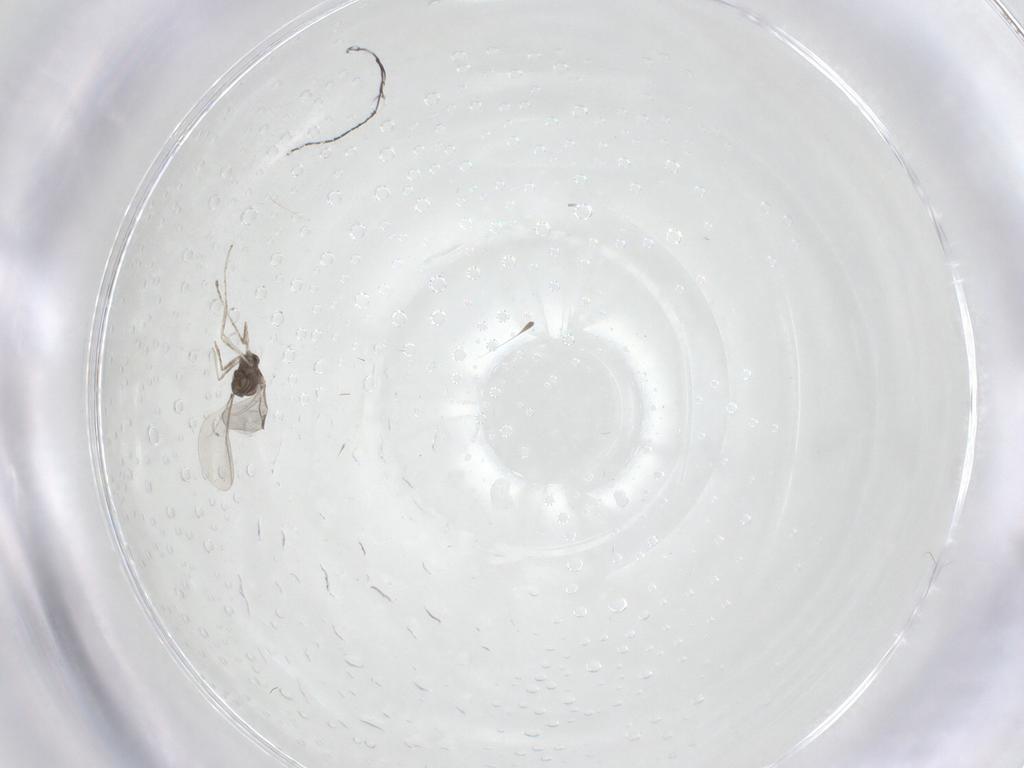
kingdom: Animalia
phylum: Arthropoda
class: Insecta
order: Diptera
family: Cecidomyiidae
